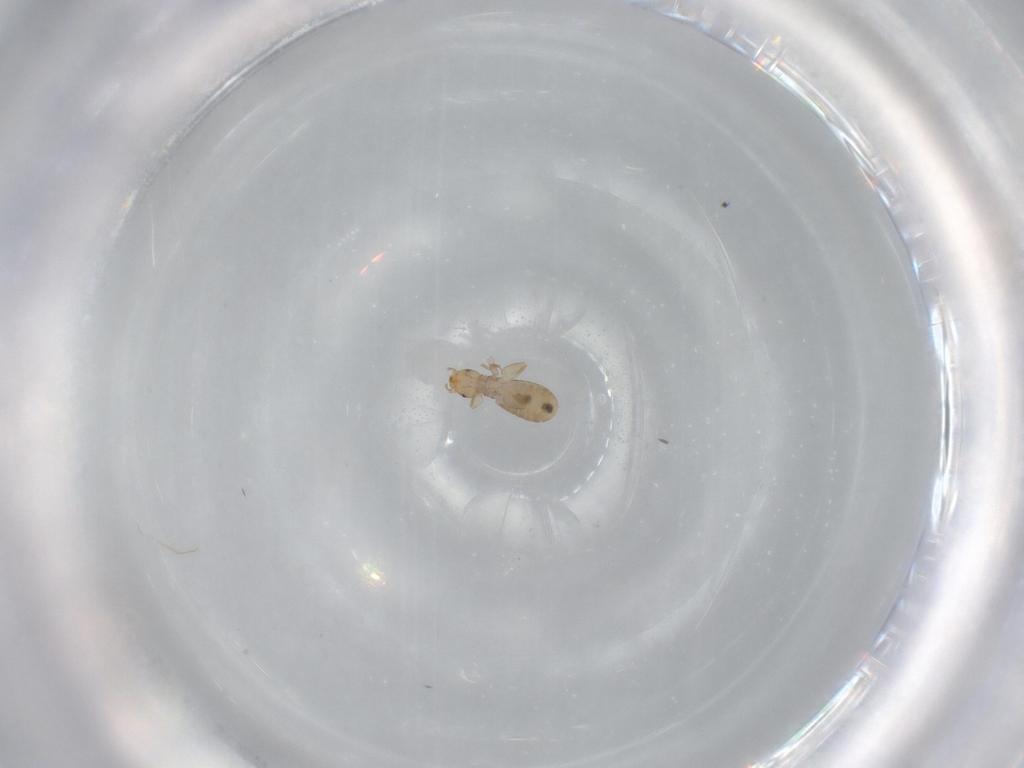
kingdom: Animalia
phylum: Arthropoda
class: Insecta
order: Psocodea
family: Liposcelididae
